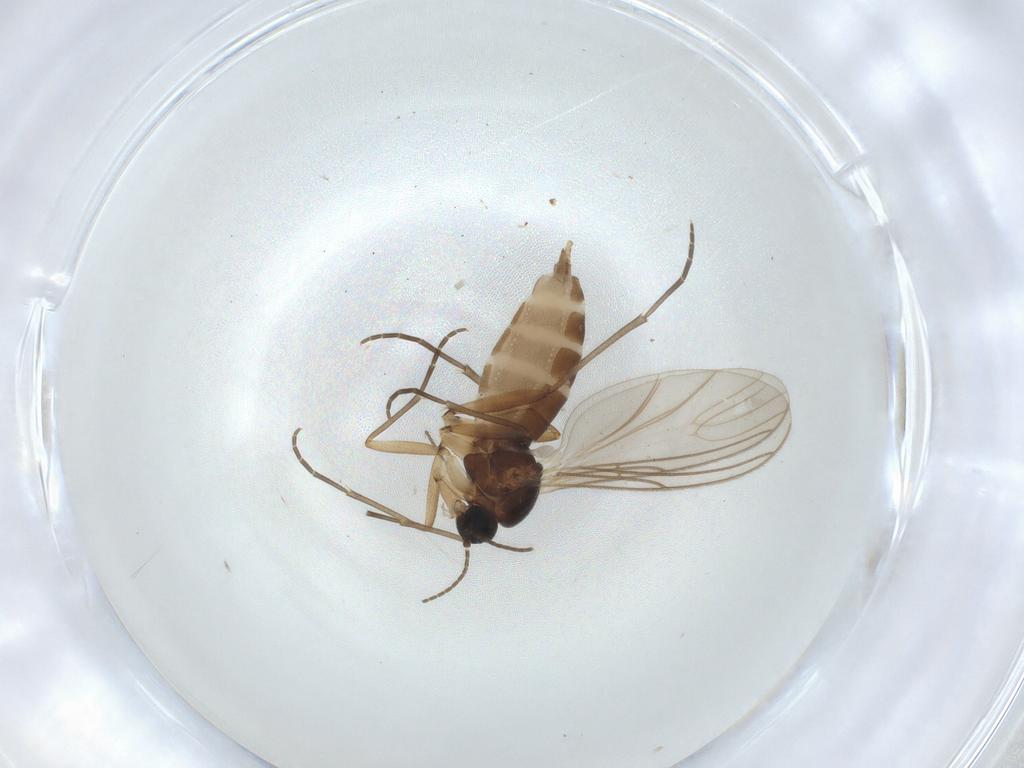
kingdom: Animalia
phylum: Arthropoda
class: Insecta
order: Diptera
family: Sciaridae
